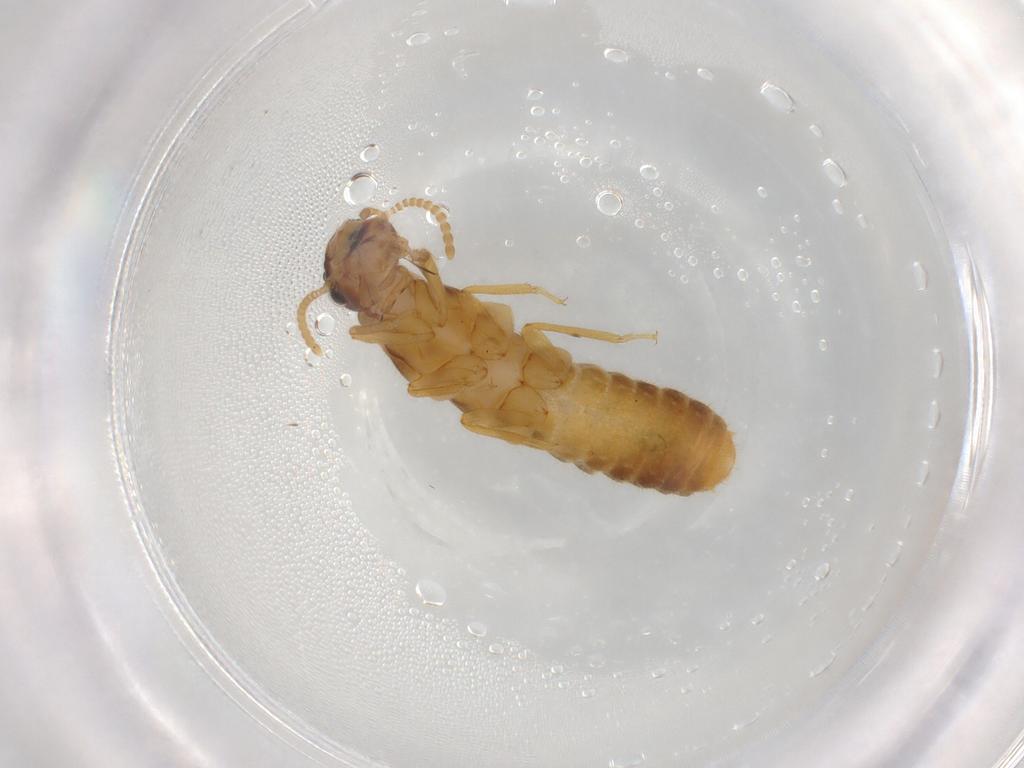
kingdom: Animalia
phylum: Arthropoda
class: Insecta
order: Blattodea
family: Termitidae
